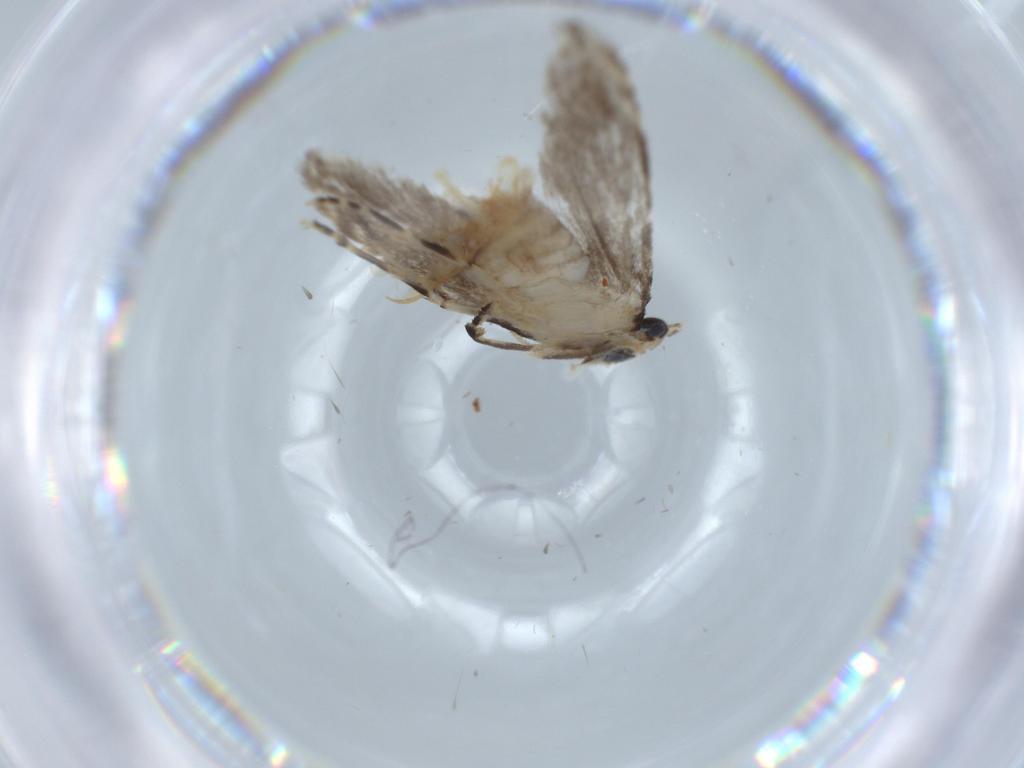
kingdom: Animalia
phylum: Arthropoda
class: Insecta
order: Lepidoptera
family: Tineidae
